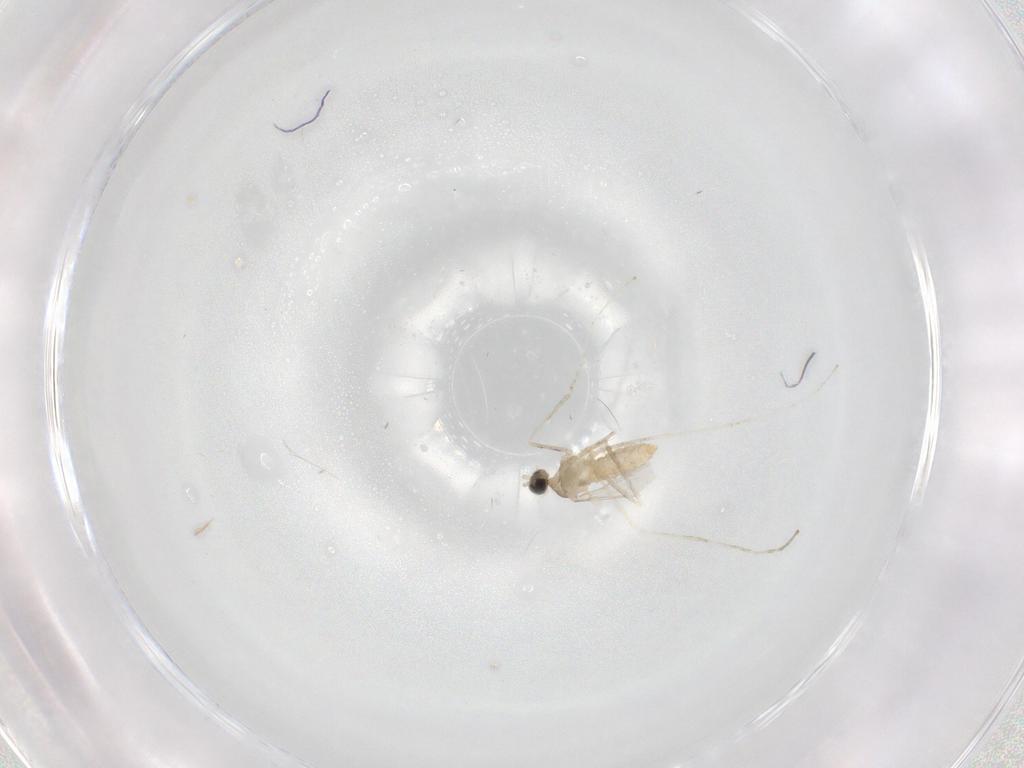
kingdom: Animalia
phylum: Arthropoda
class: Insecta
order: Diptera
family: Cecidomyiidae
